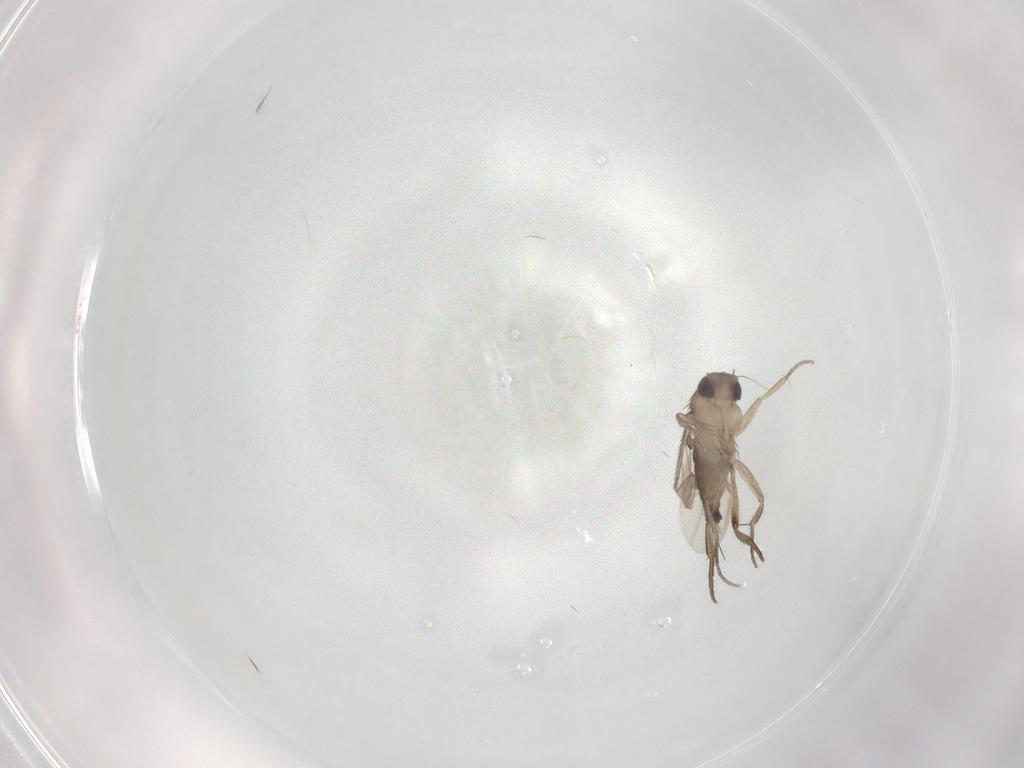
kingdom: Animalia
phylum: Arthropoda
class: Insecta
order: Diptera
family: Phoridae
